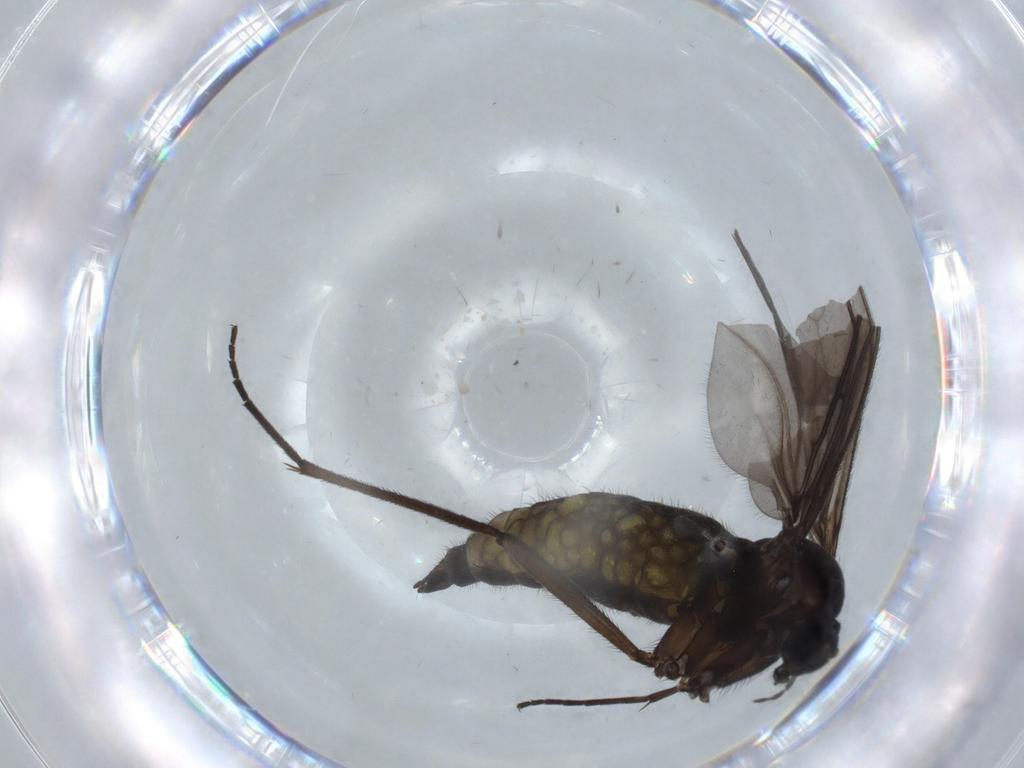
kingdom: Animalia
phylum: Arthropoda
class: Insecta
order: Diptera
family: Sciaridae
